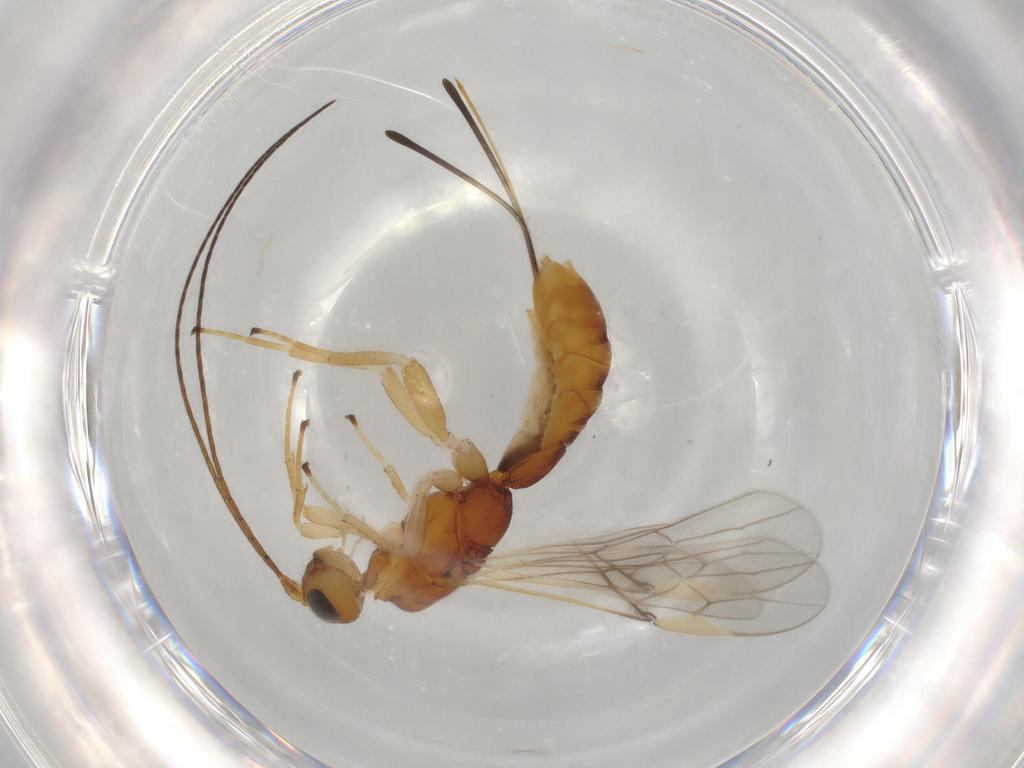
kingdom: Animalia
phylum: Arthropoda
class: Insecta
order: Hymenoptera
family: Braconidae
